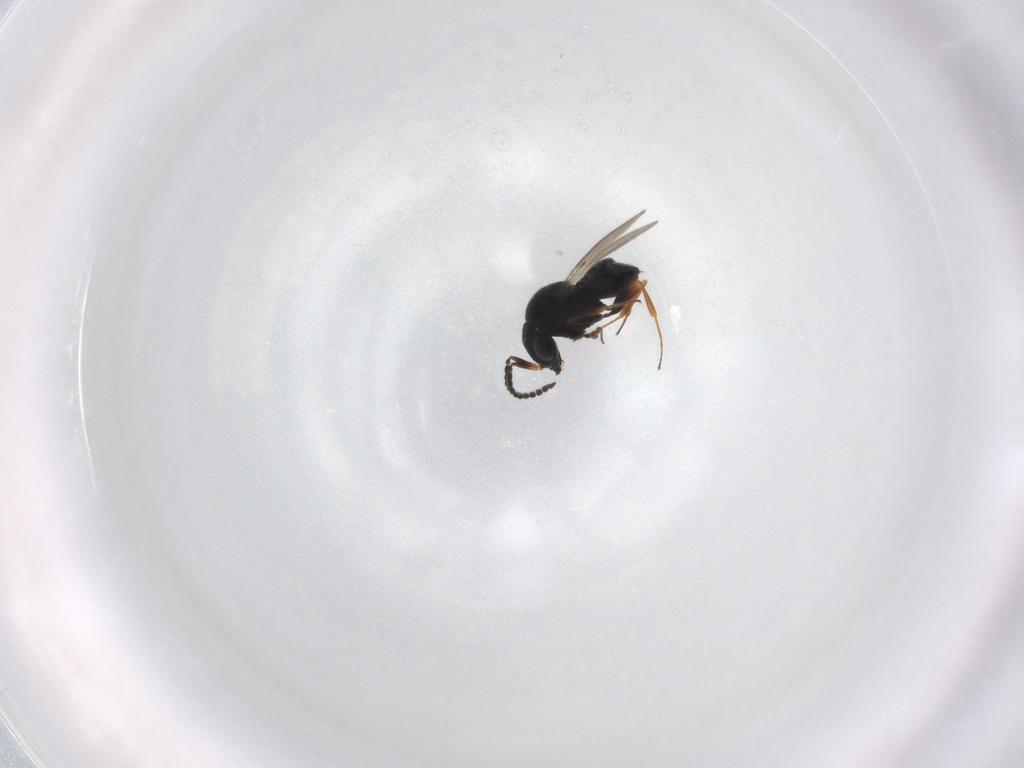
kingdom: Animalia
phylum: Arthropoda
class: Insecta
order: Hymenoptera
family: Scelionidae
